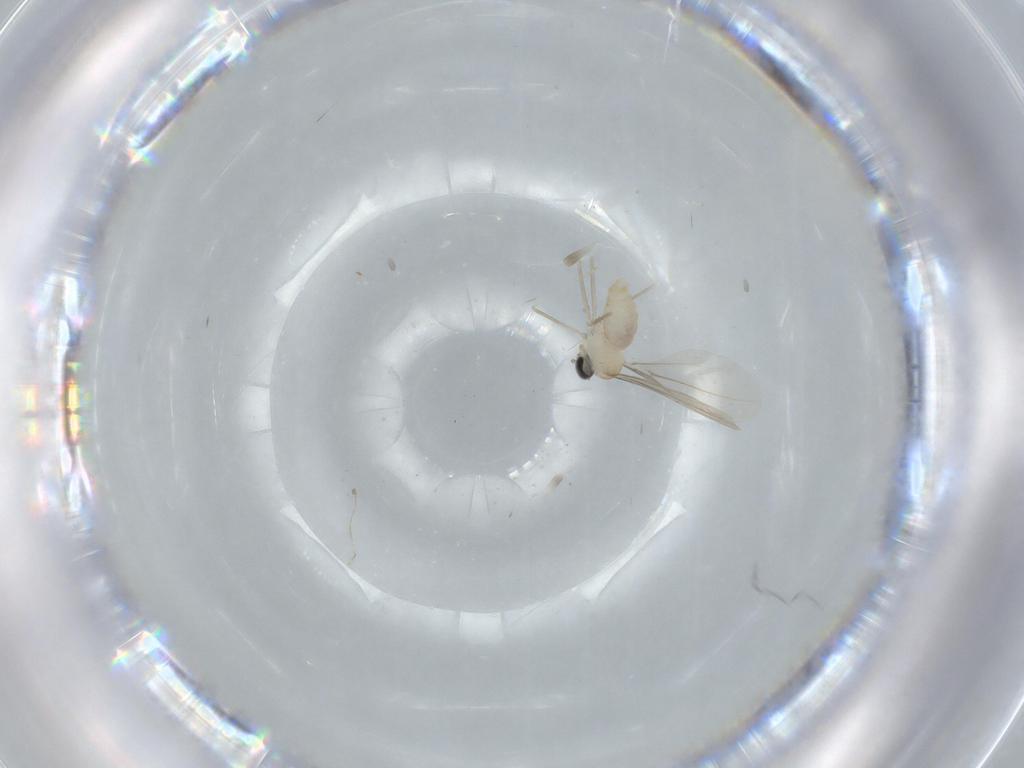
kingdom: Animalia
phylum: Arthropoda
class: Insecta
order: Diptera
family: Cecidomyiidae
